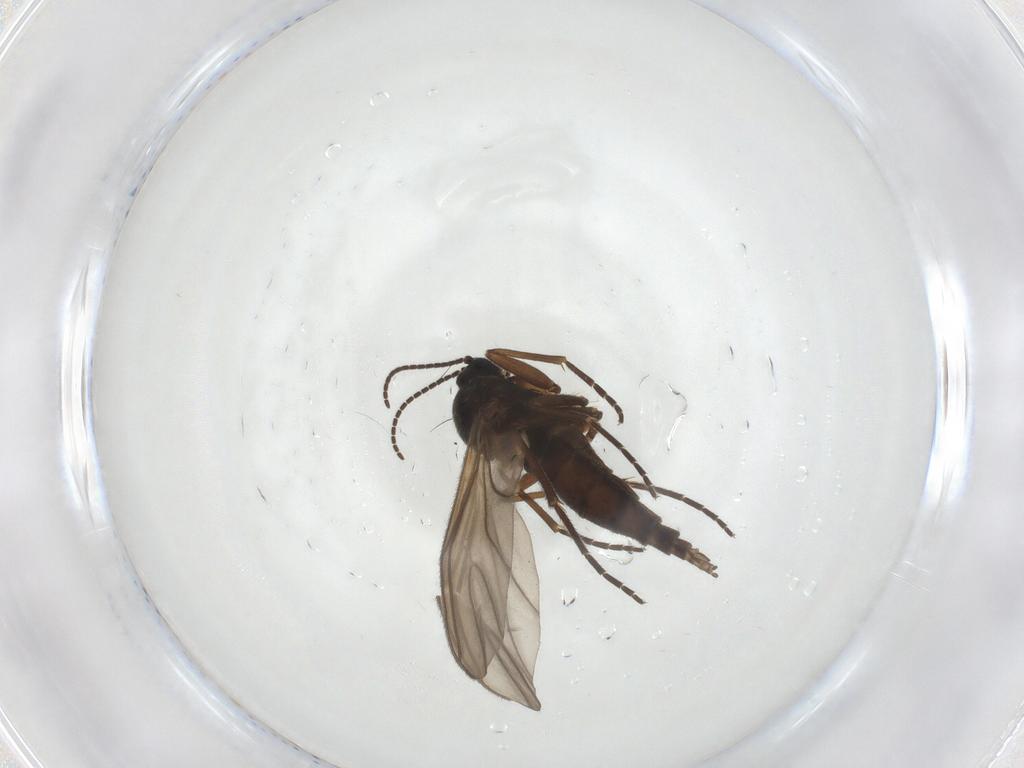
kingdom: Animalia
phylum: Arthropoda
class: Insecta
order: Diptera
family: Sciaridae
